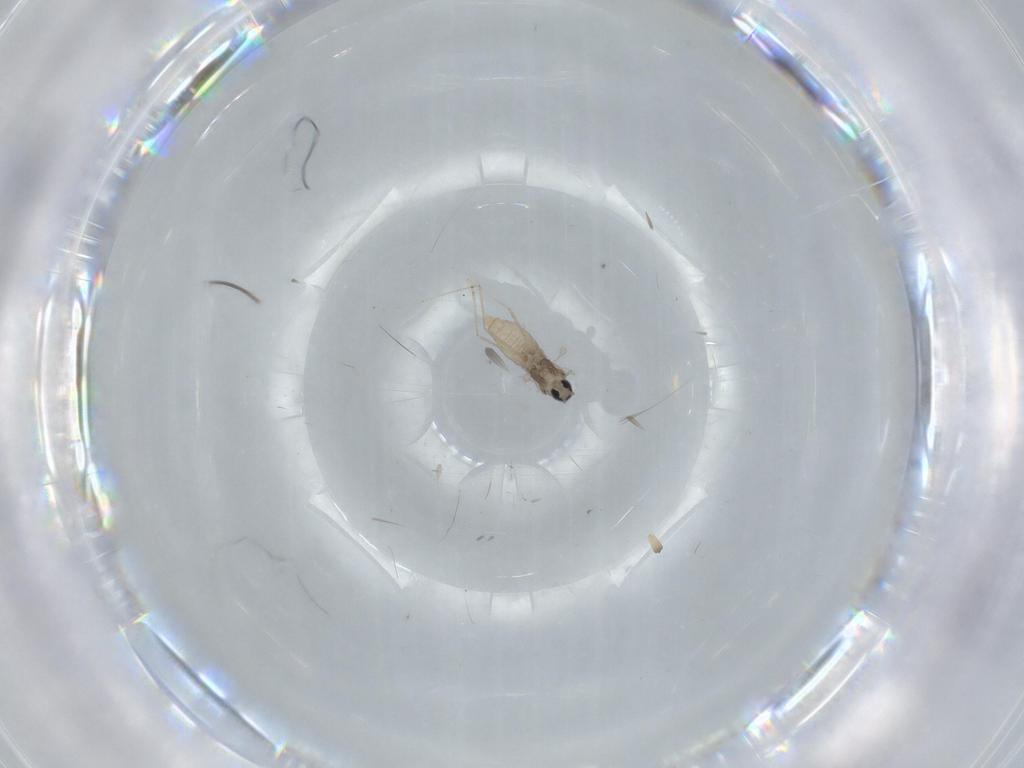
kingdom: Animalia
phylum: Arthropoda
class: Insecta
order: Diptera
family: Cecidomyiidae
